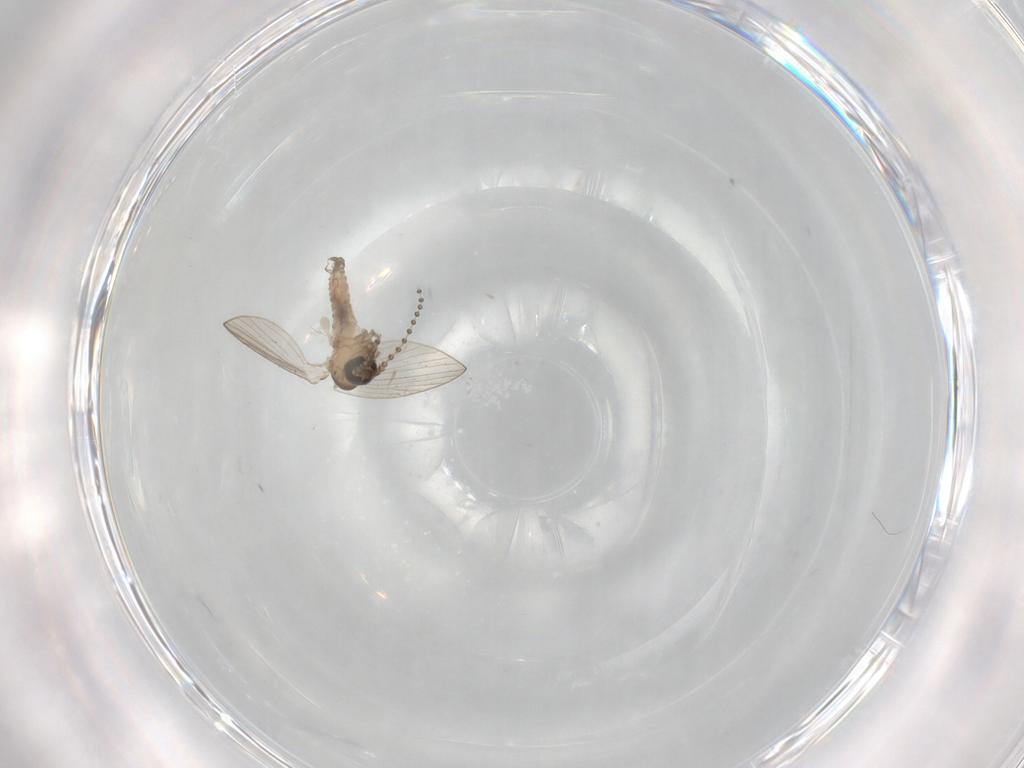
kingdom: Animalia
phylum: Arthropoda
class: Insecta
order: Diptera
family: Psychodidae
